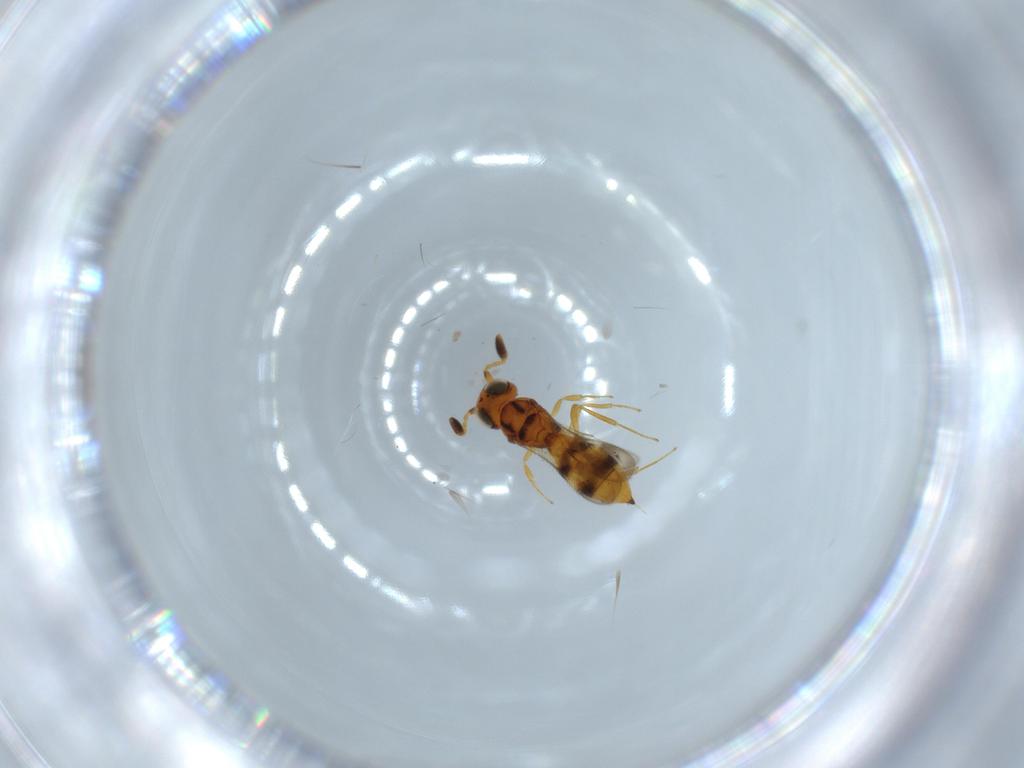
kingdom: Animalia
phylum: Arthropoda
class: Insecta
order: Hymenoptera
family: Scelionidae
